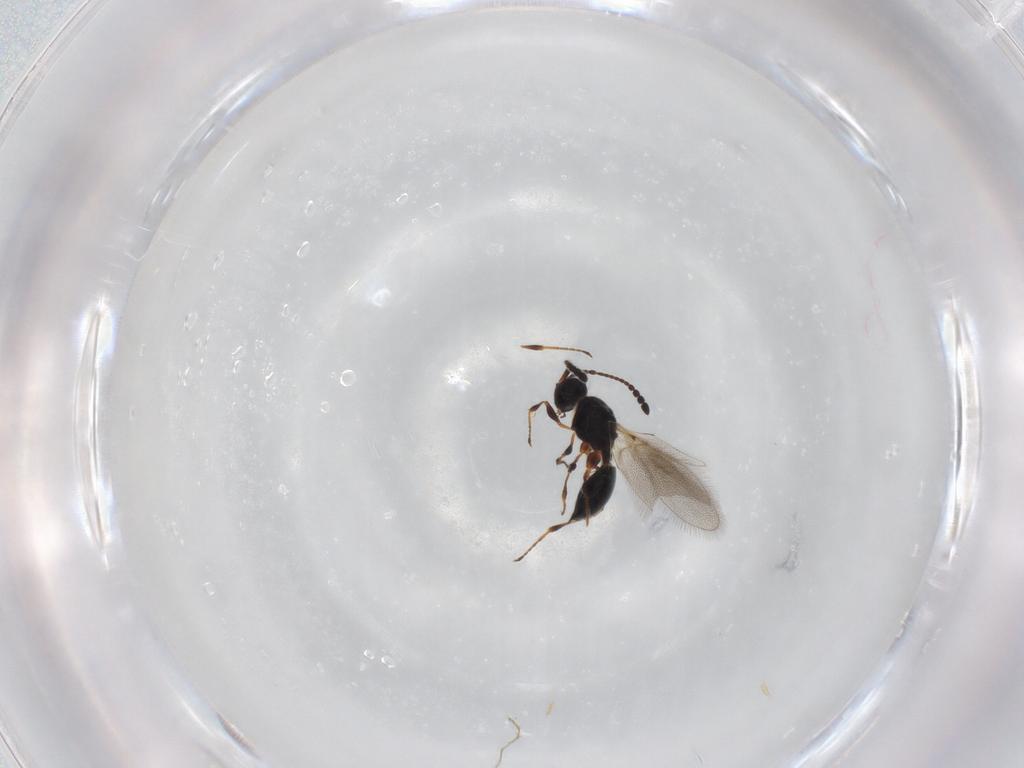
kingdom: Animalia
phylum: Arthropoda
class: Insecta
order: Hymenoptera
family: Diapriidae
